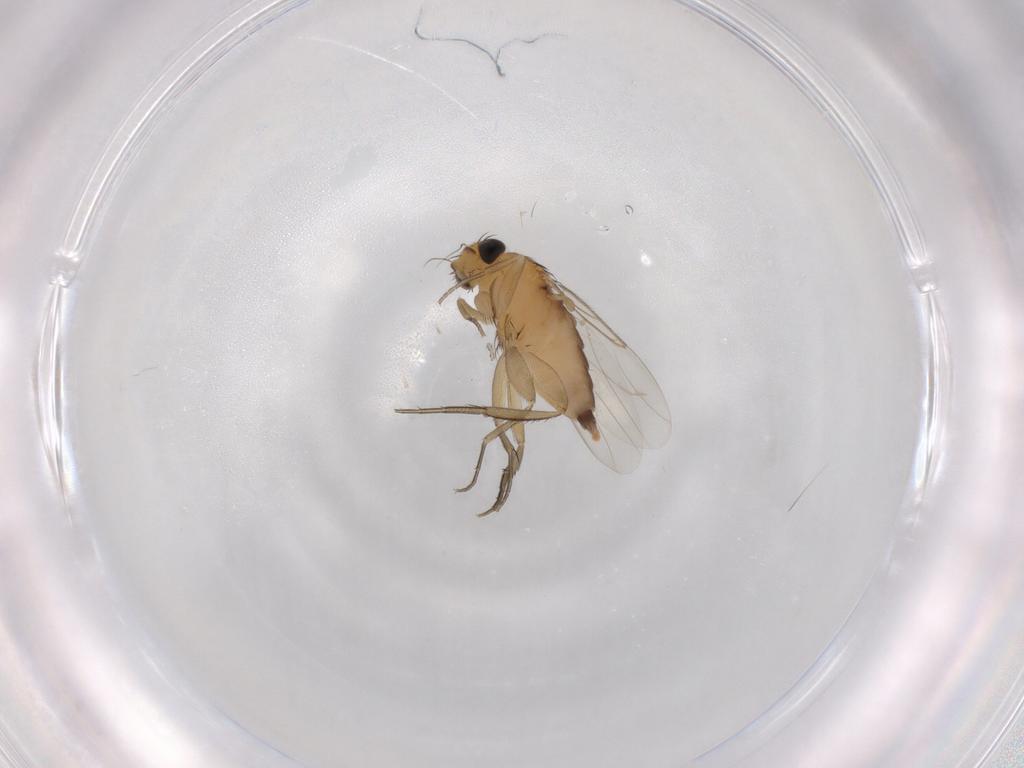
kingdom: Animalia
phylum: Arthropoda
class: Insecta
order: Diptera
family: Phoridae
